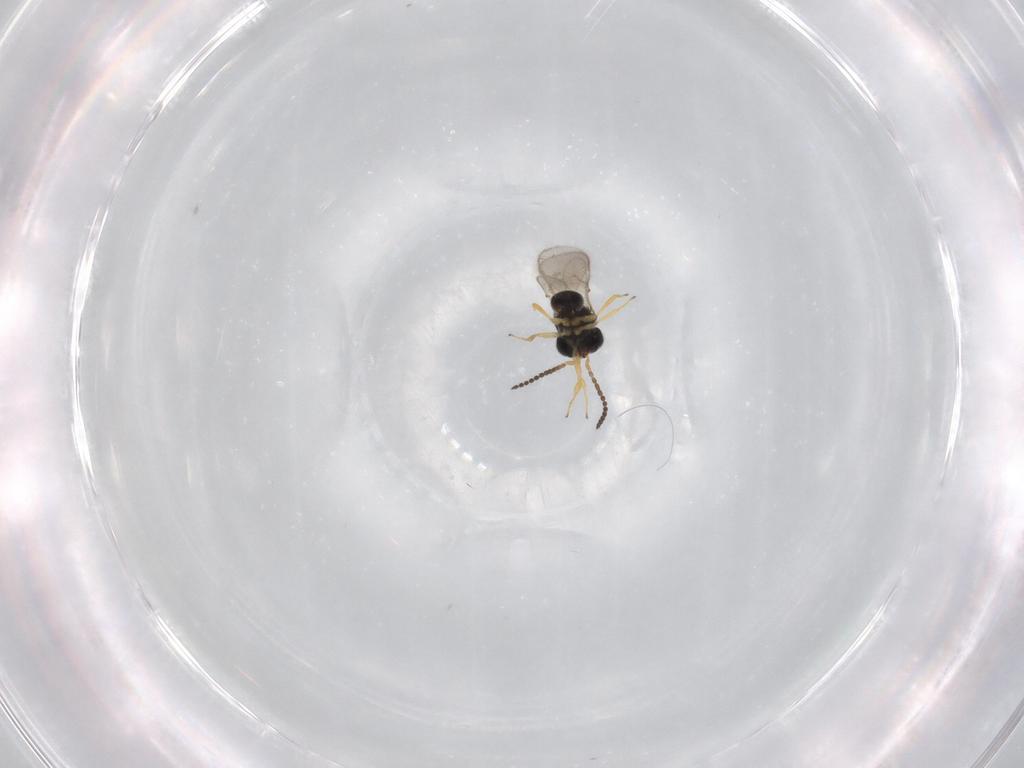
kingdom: Animalia
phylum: Arthropoda
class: Insecta
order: Hymenoptera
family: Scelionidae
